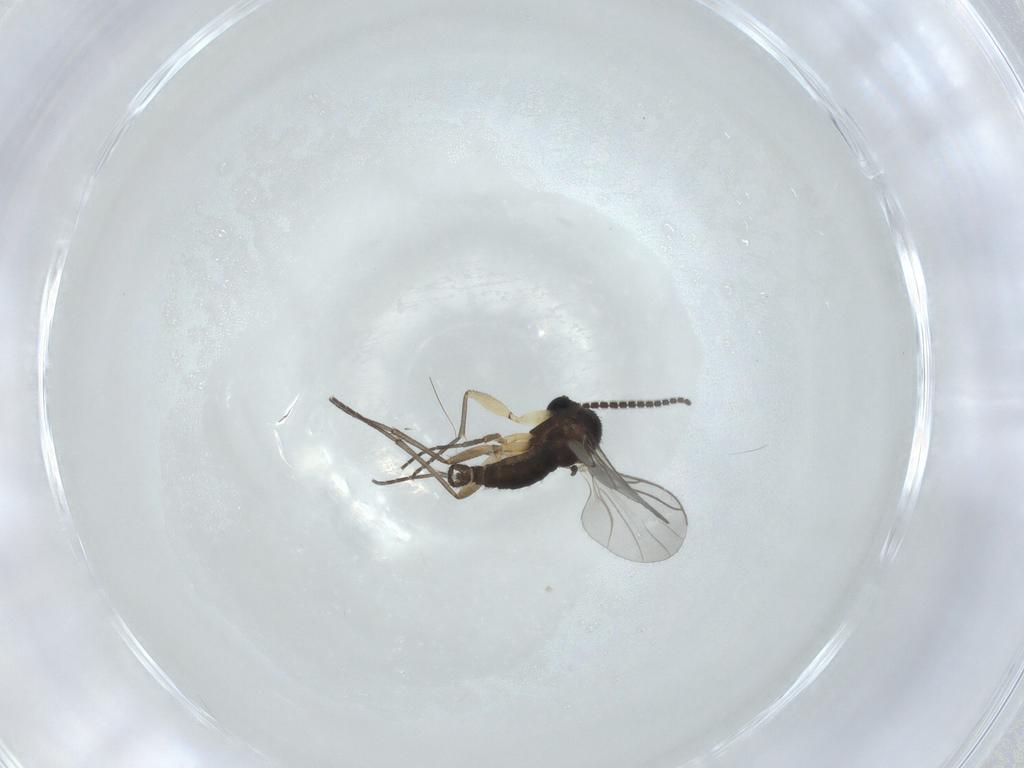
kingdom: Animalia
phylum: Arthropoda
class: Insecta
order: Diptera
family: Sciaridae
